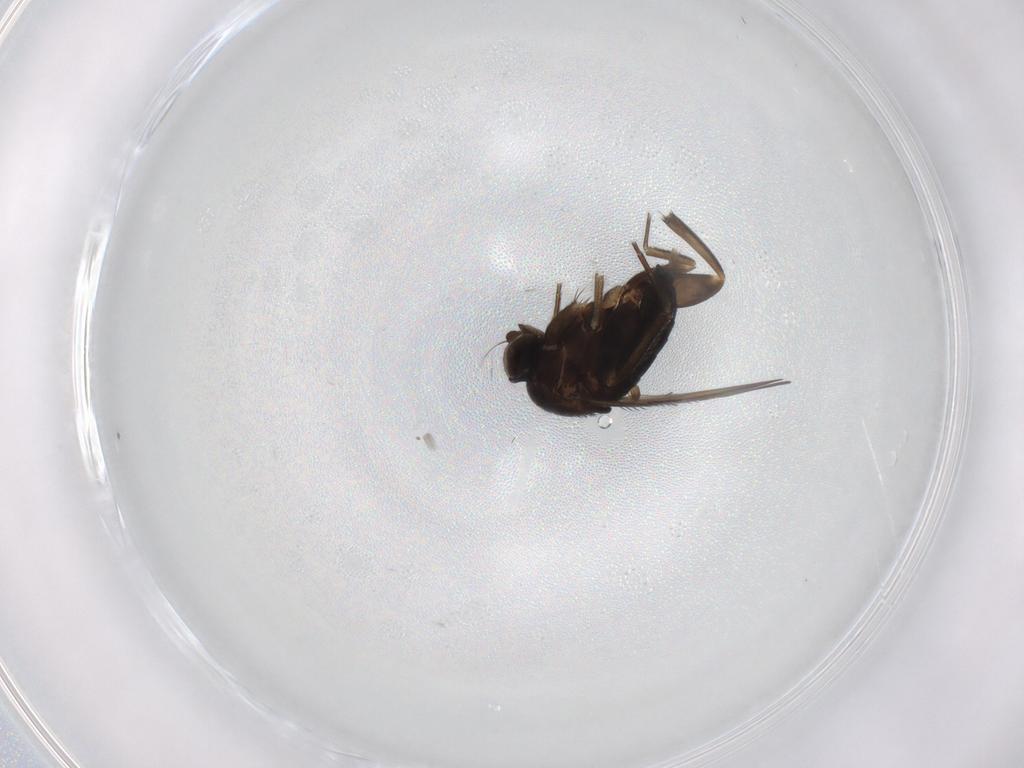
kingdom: Animalia
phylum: Arthropoda
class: Insecta
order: Diptera
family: Phoridae
